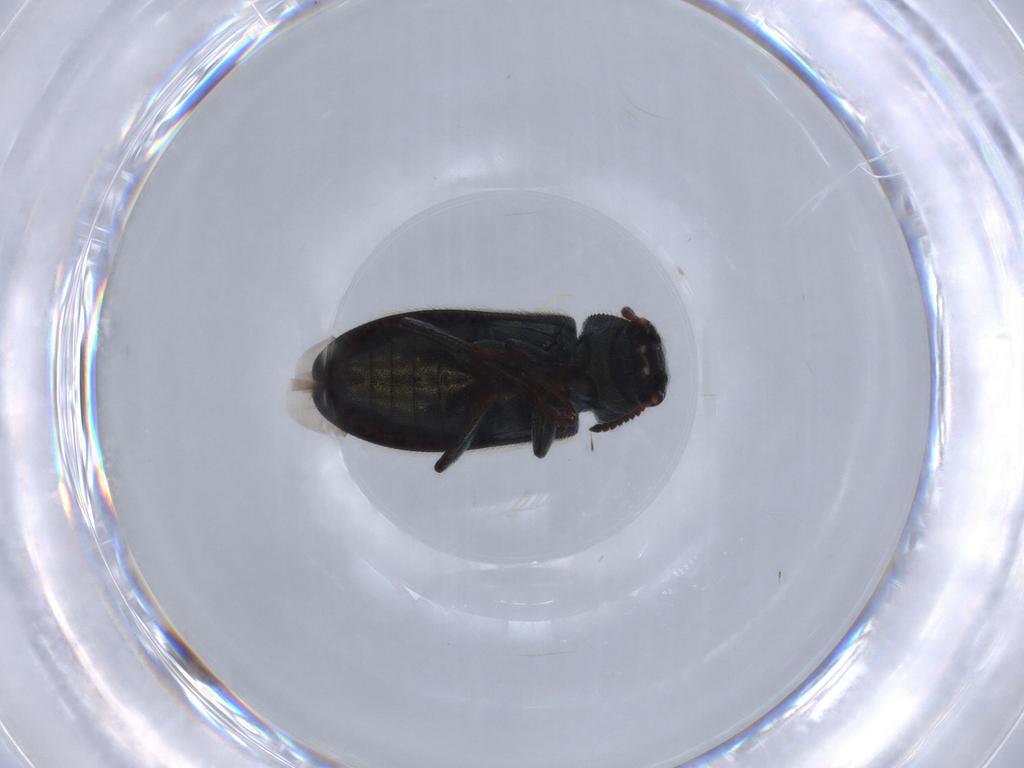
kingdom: Animalia
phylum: Arthropoda
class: Insecta
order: Coleoptera
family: Melyridae
